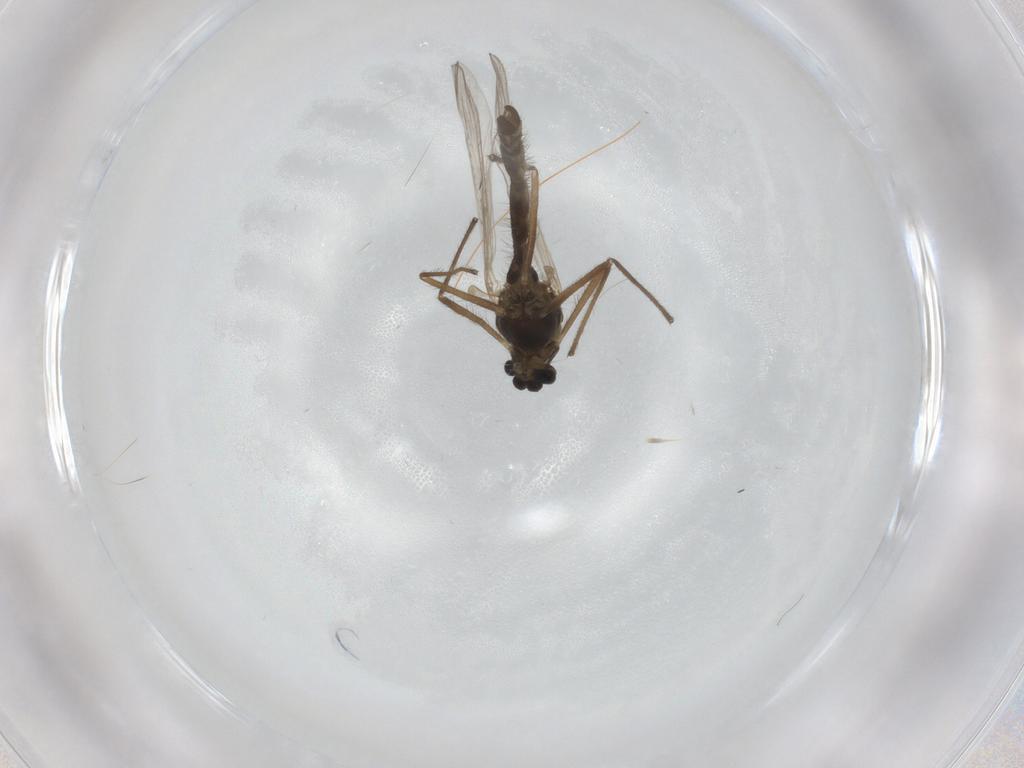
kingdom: Animalia
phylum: Arthropoda
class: Insecta
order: Diptera
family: Chironomidae
